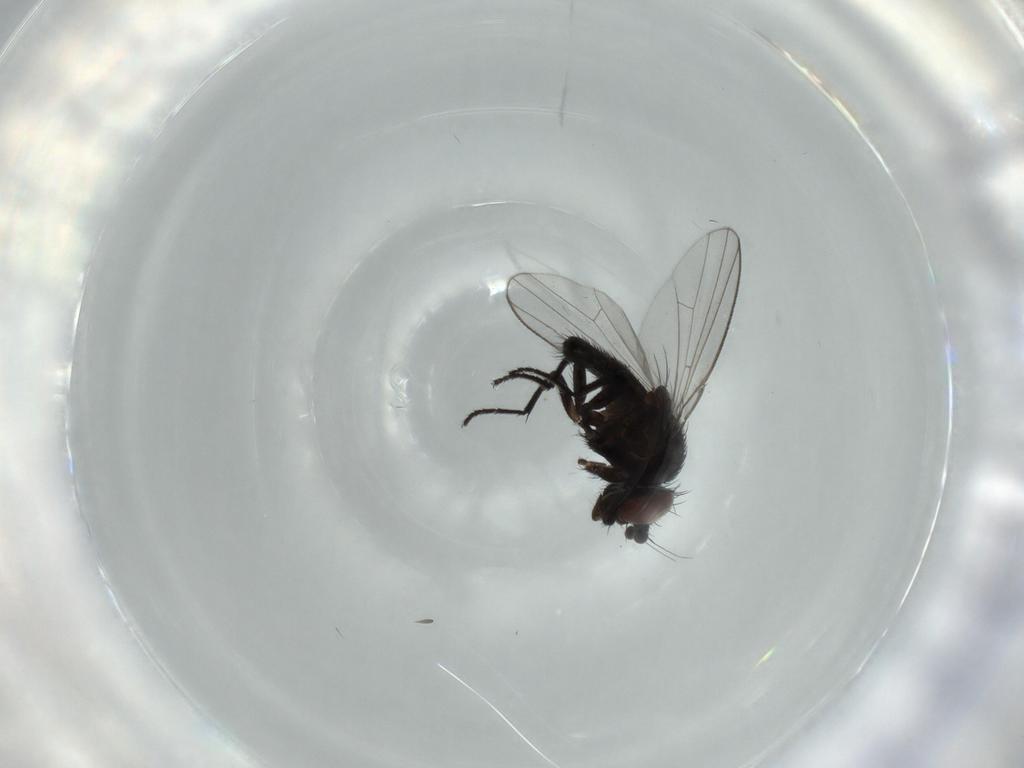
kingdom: Animalia
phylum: Arthropoda
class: Insecta
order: Diptera
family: Milichiidae
